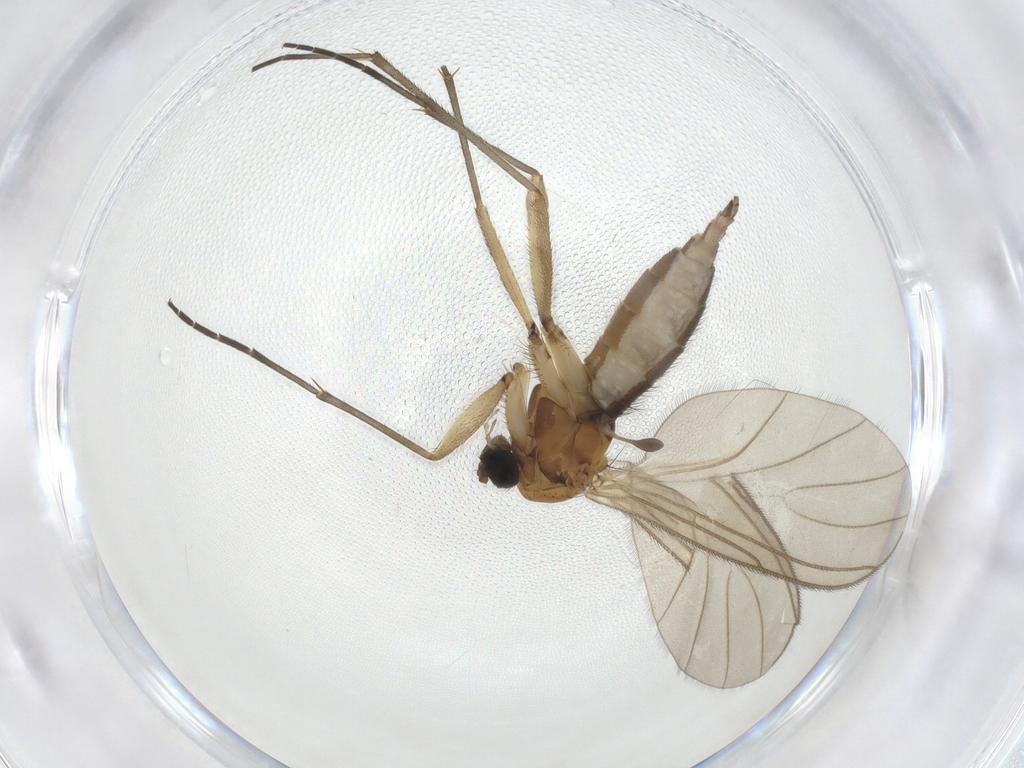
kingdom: Animalia
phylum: Arthropoda
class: Insecta
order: Diptera
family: Sciaridae
